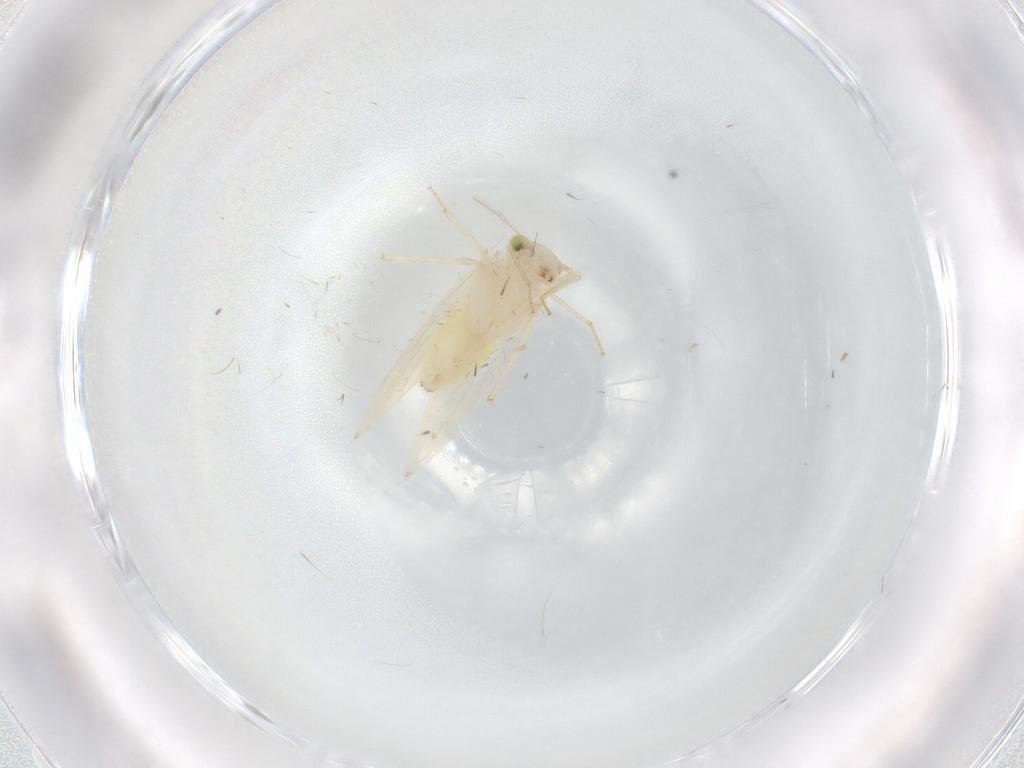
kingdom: Animalia
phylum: Arthropoda
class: Insecta
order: Psocodea
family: Lepidopsocidae
